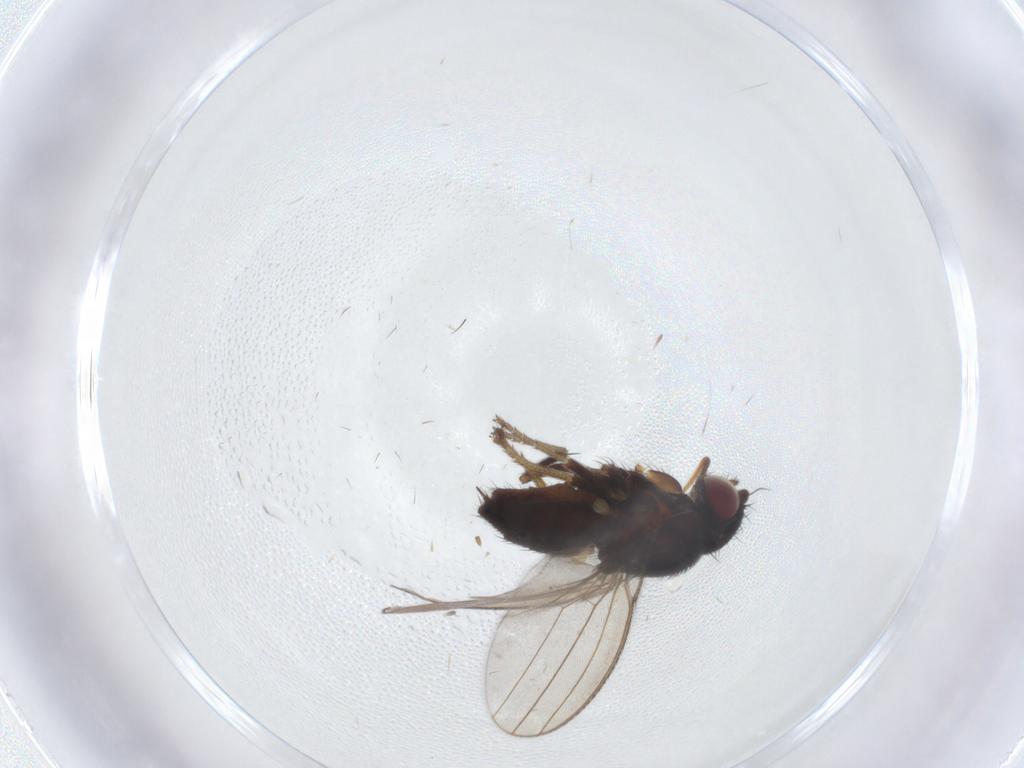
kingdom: Animalia
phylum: Arthropoda
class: Insecta
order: Diptera
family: Milichiidae
